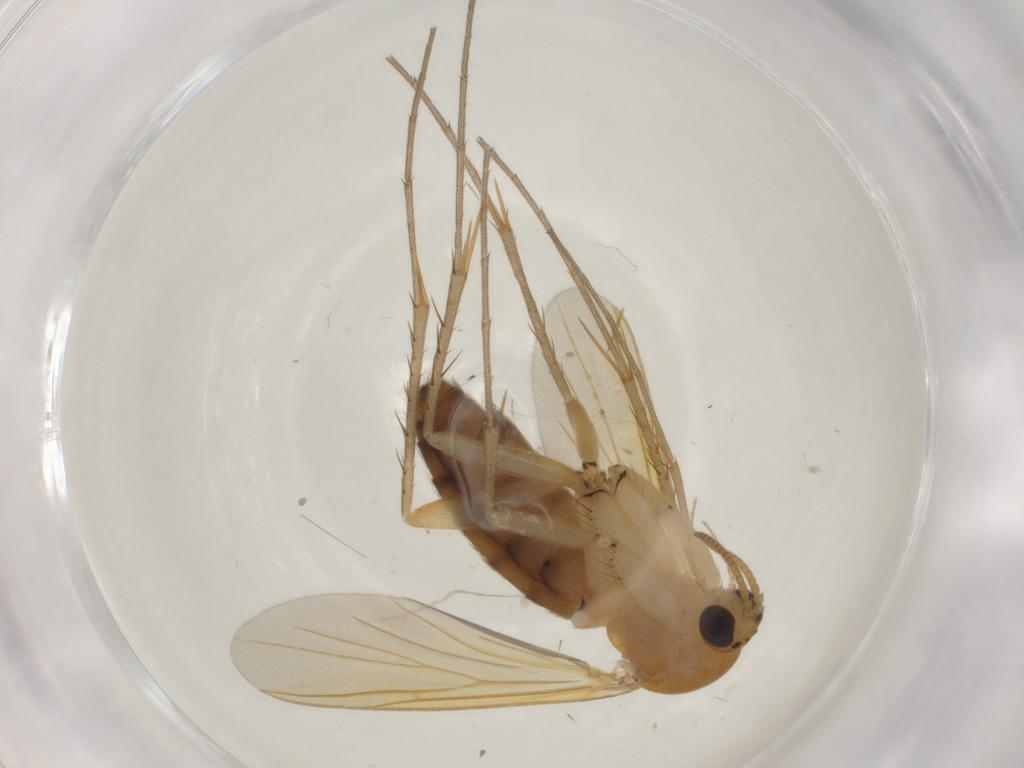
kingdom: Animalia
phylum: Arthropoda
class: Insecta
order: Diptera
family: Mycetophilidae
